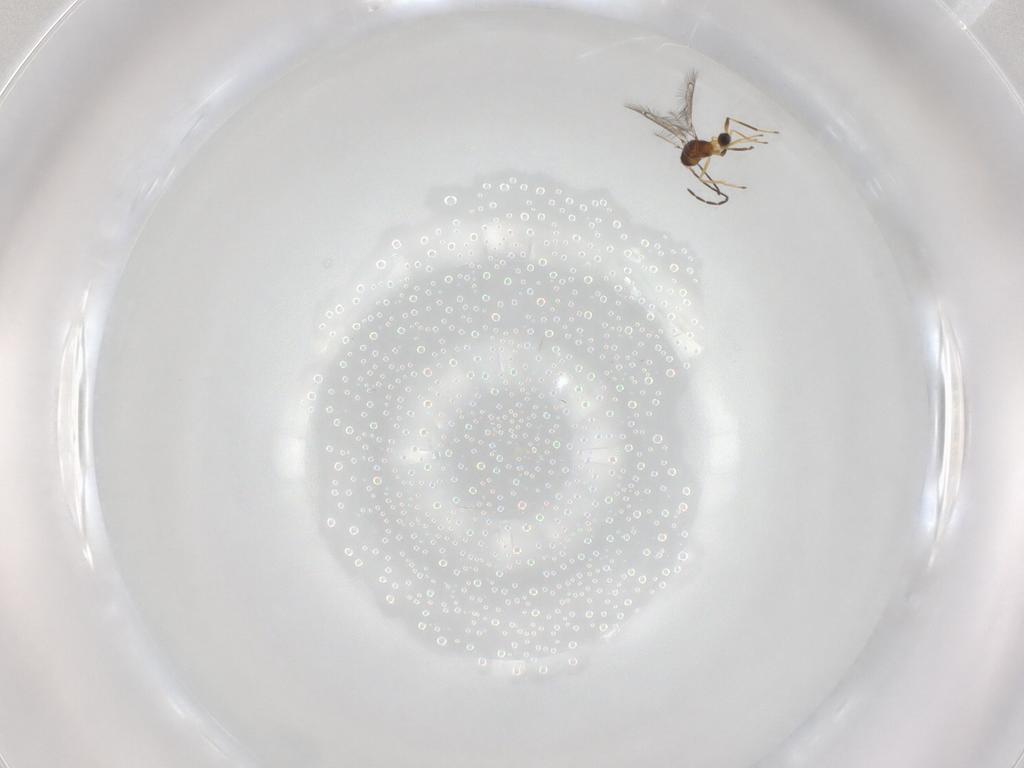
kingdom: Animalia
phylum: Arthropoda
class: Insecta
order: Hymenoptera
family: Mymaridae
